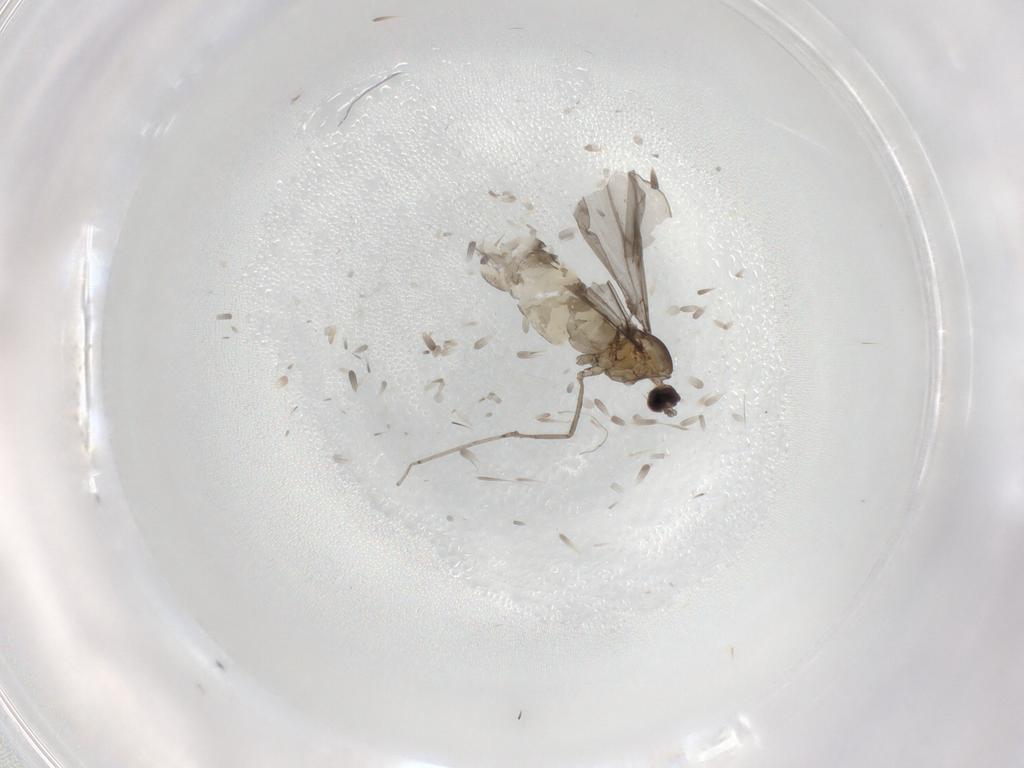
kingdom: Animalia
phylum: Arthropoda
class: Insecta
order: Diptera
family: Cecidomyiidae
